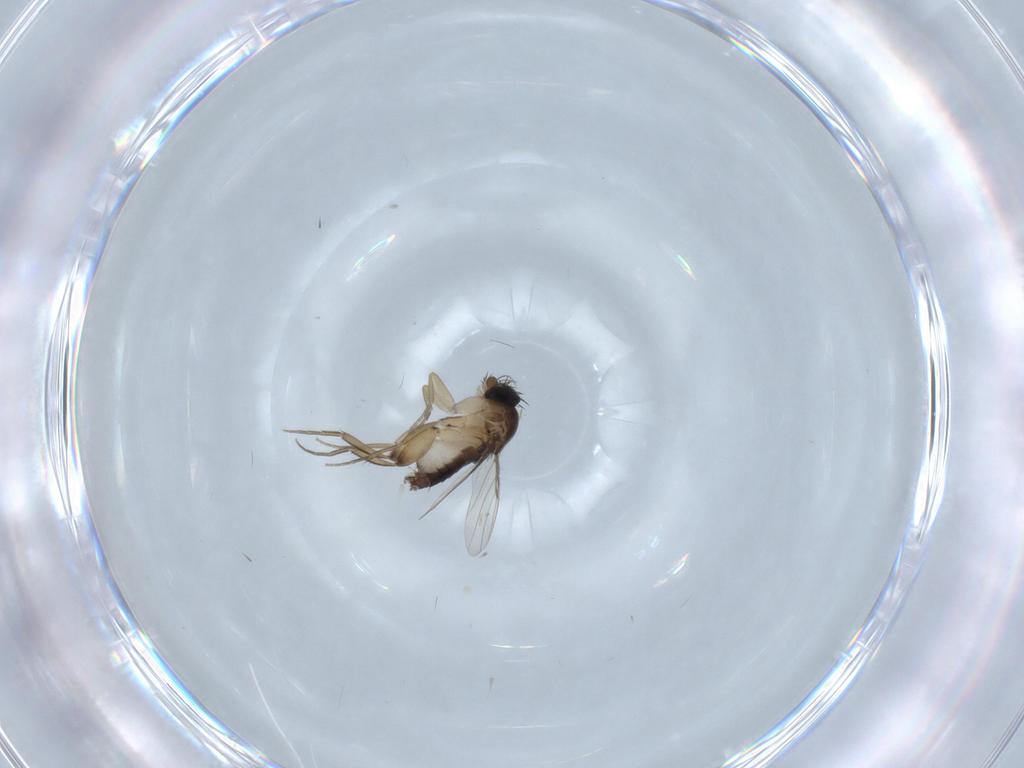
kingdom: Animalia
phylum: Arthropoda
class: Insecta
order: Diptera
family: Phoridae
